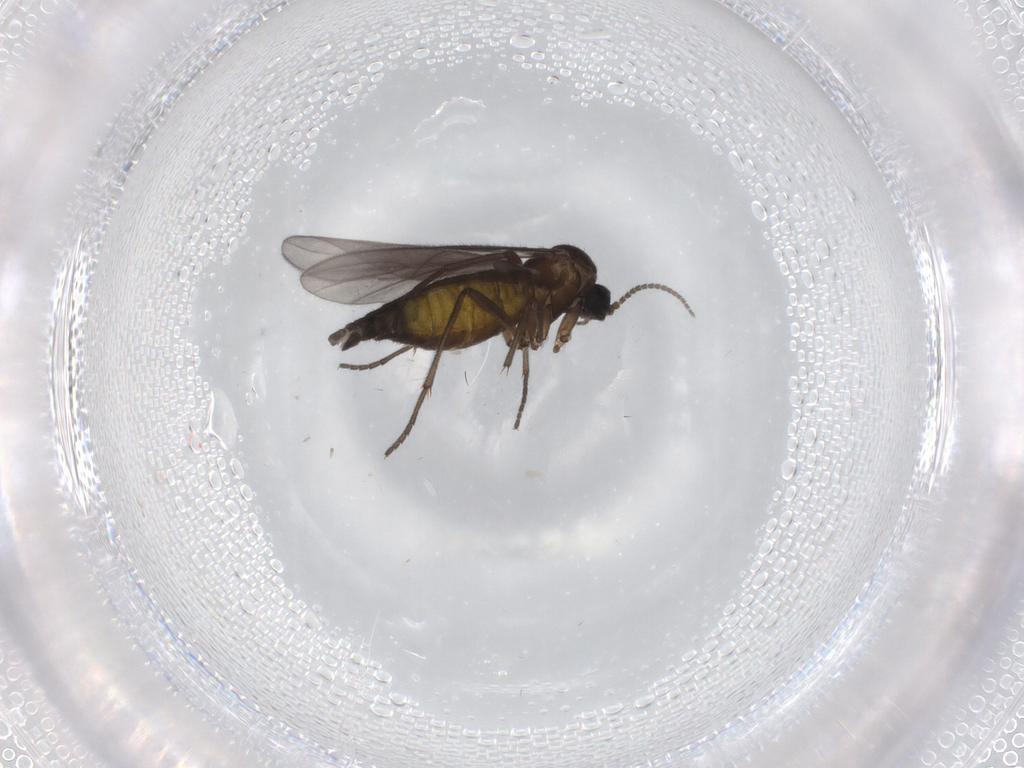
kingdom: Animalia
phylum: Arthropoda
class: Insecta
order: Diptera
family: Sciaridae
